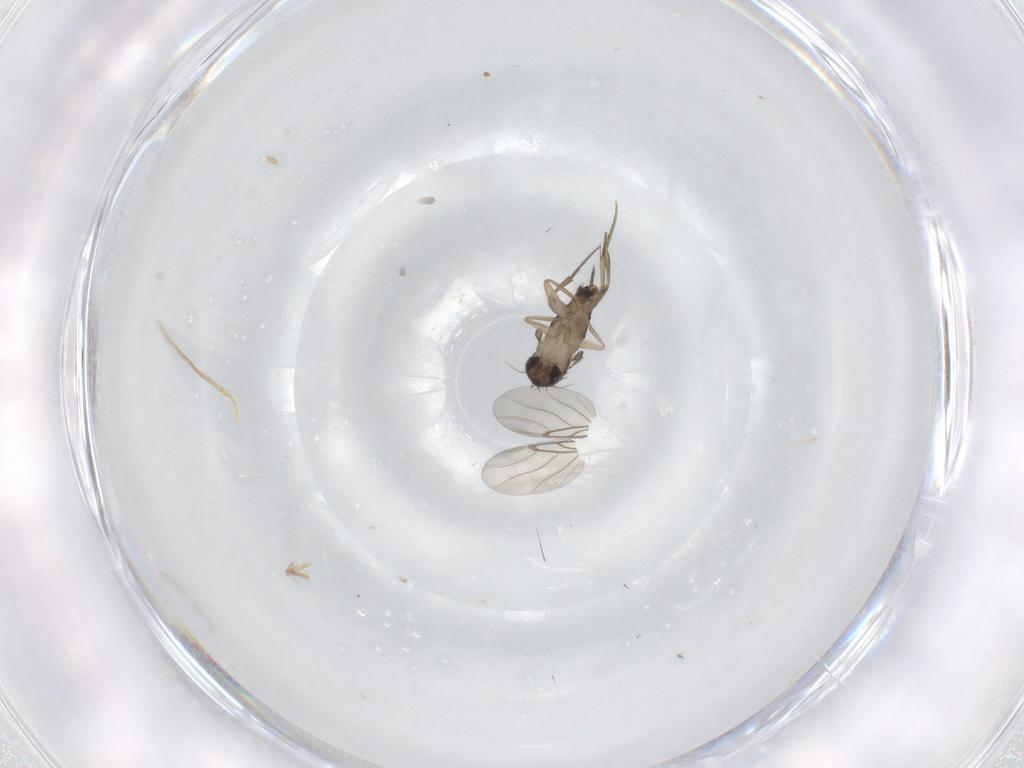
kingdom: Animalia
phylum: Arthropoda
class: Insecta
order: Diptera
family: Phoridae
